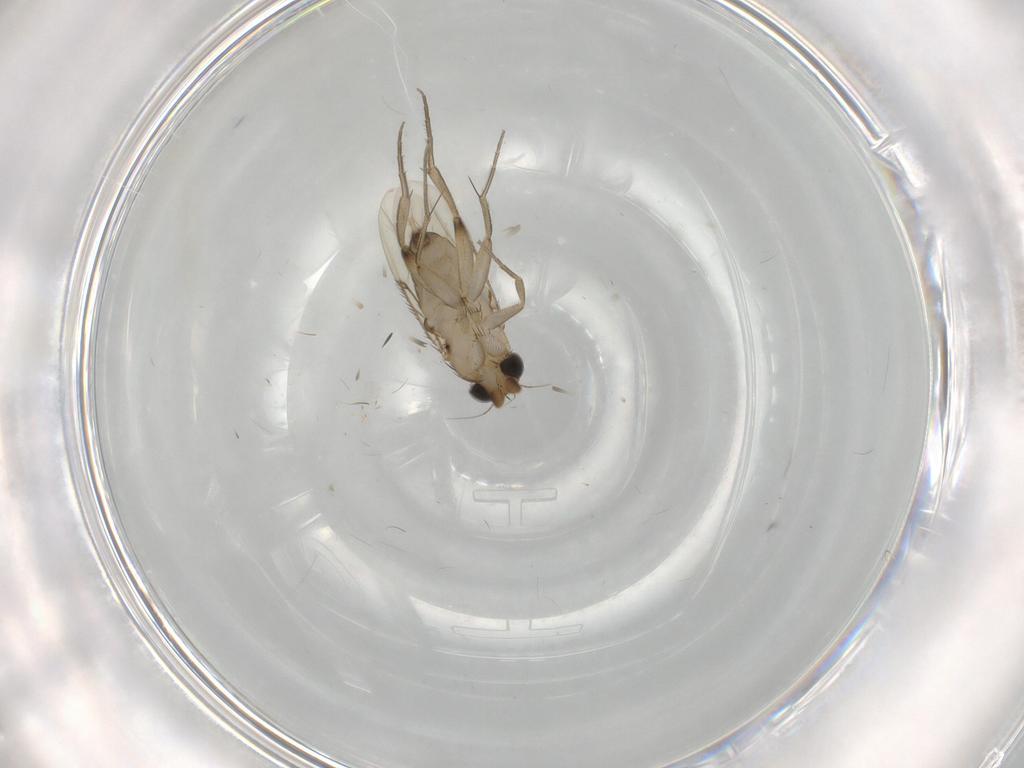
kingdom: Animalia
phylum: Arthropoda
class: Insecta
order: Diptera
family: Phoridae
